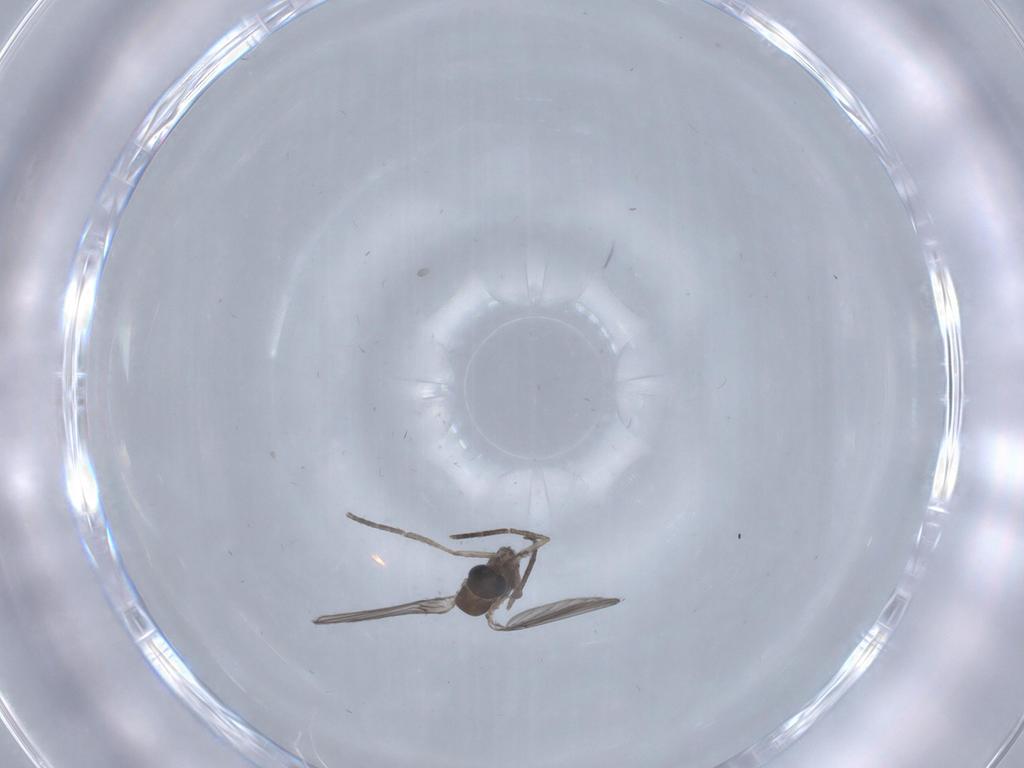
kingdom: Animalia
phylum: Arthropoda
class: Insecta
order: Diptera
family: Psychodidae
